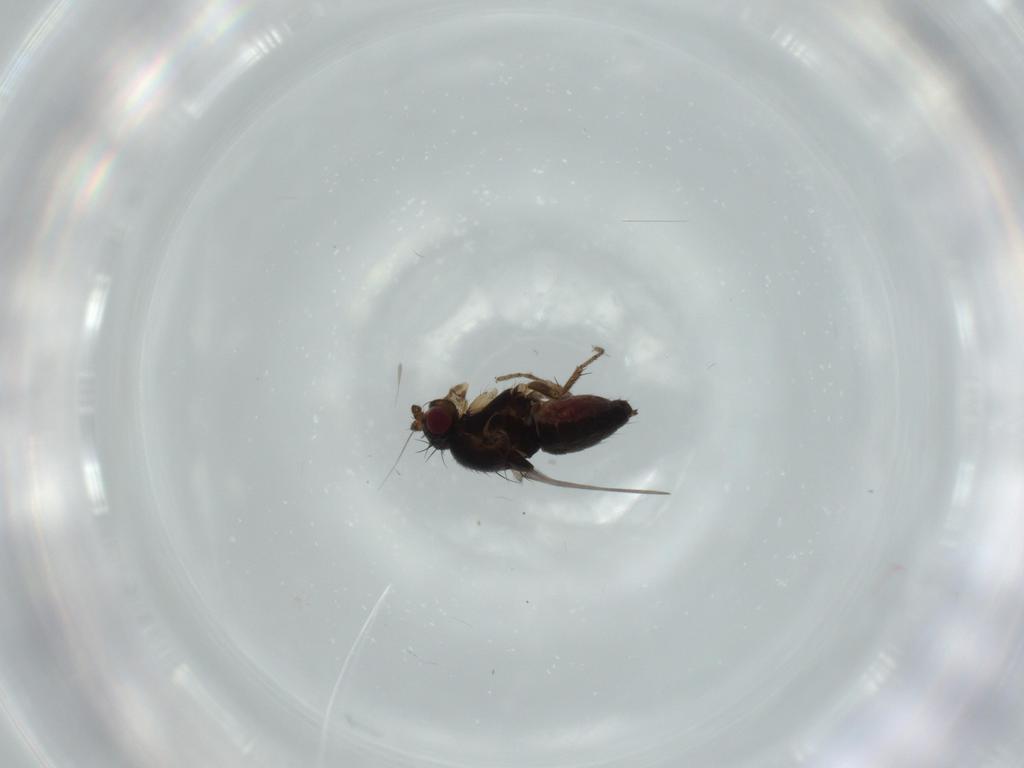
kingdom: Animalia
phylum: Arthropoda
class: Insecta
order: Diptera
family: Sphaeroceridae
